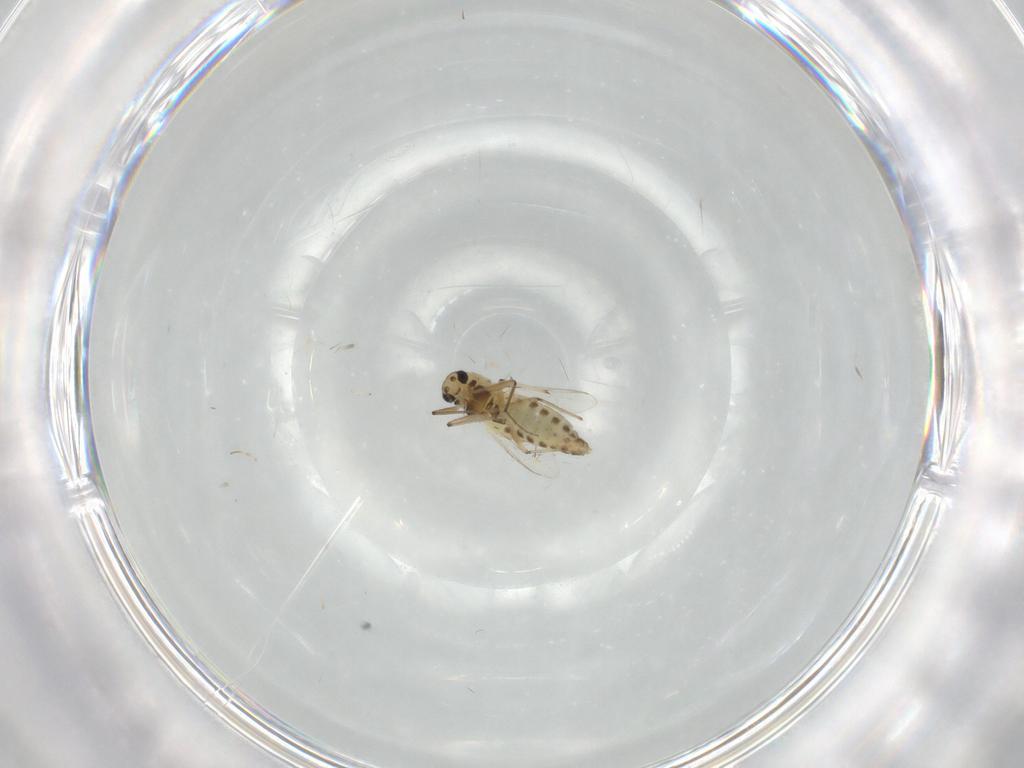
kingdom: Animalia
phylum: Arthropoda
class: Insecta
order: Diptera
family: Chironomidae
